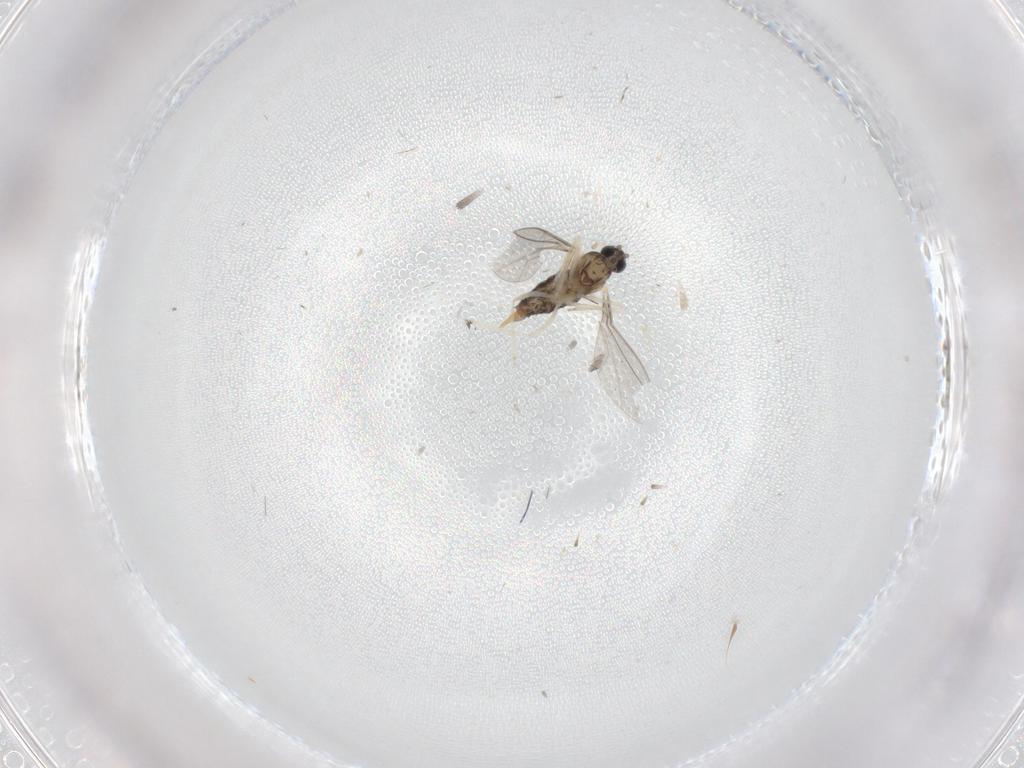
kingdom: Animalia
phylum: Arthropoda
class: Insecta
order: Diptera
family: Cecidomyiidae
